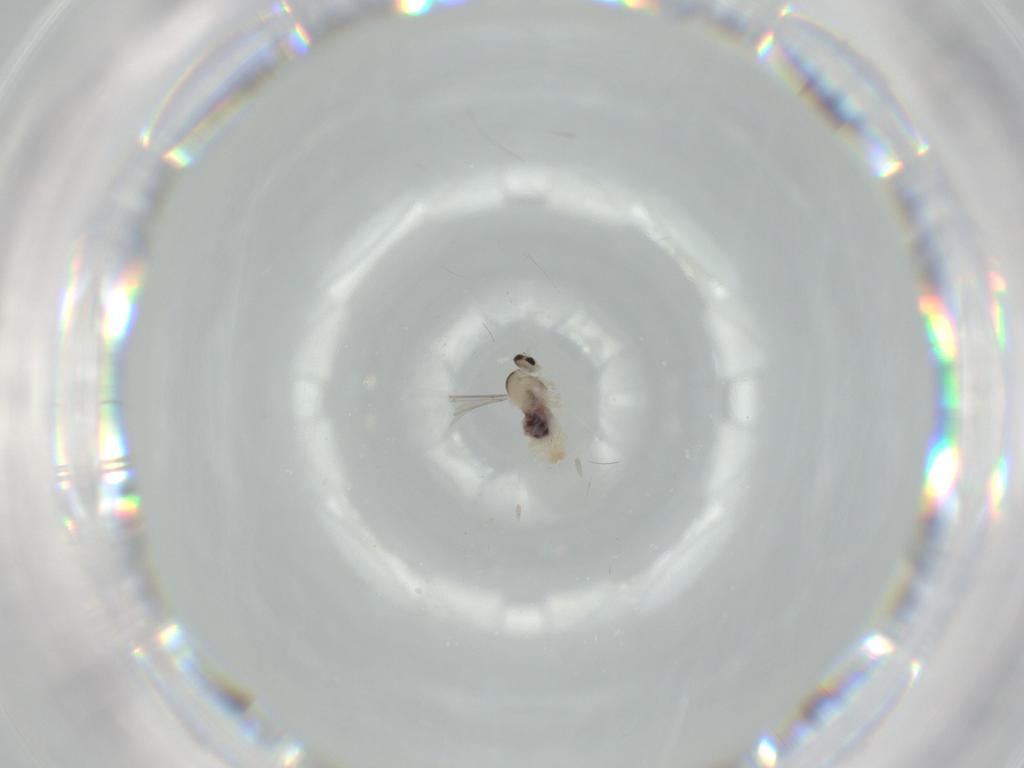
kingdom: Animalia
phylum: Arthropoda
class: Insecta
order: Diptera
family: Cecidomyiidae
